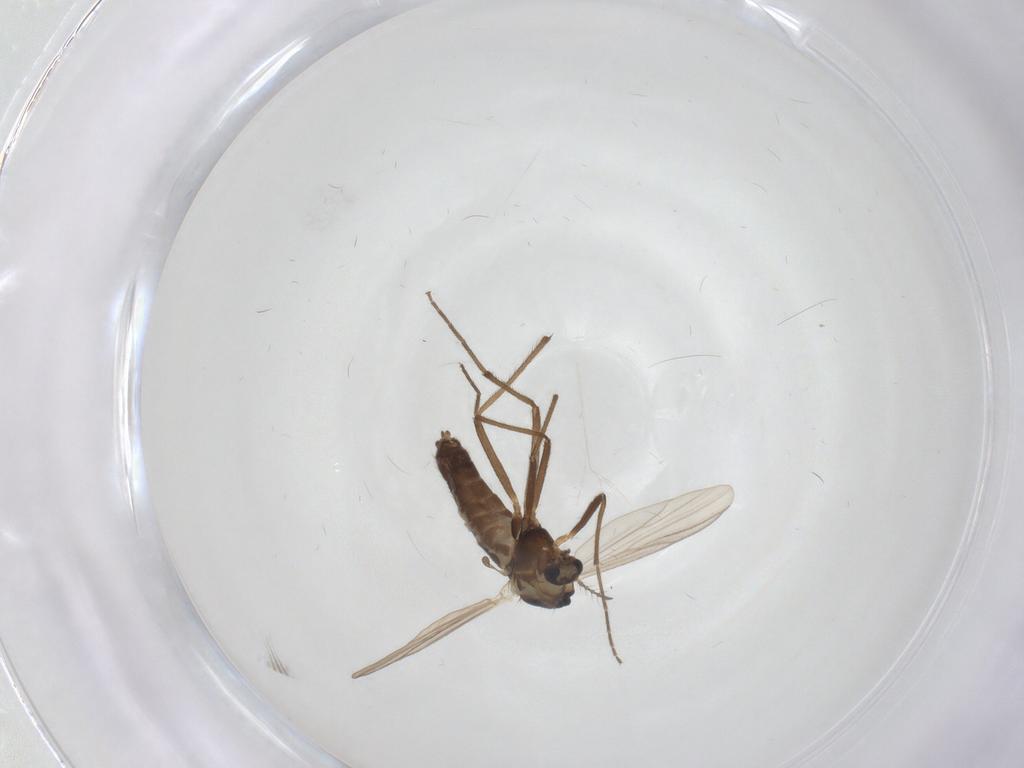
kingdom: Animalia
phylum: Arthropoda
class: Insecta
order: Diptera
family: Chironomidae
